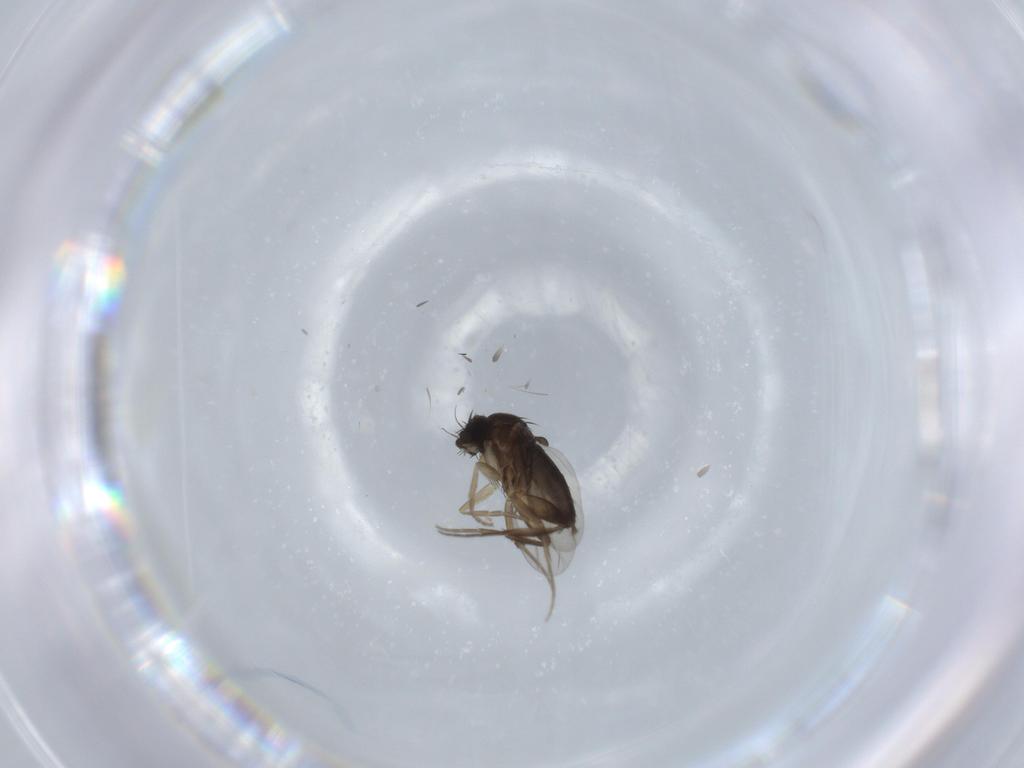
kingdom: Animalia
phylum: Arthropoda
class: Insecta
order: Diptera
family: Phoridae
